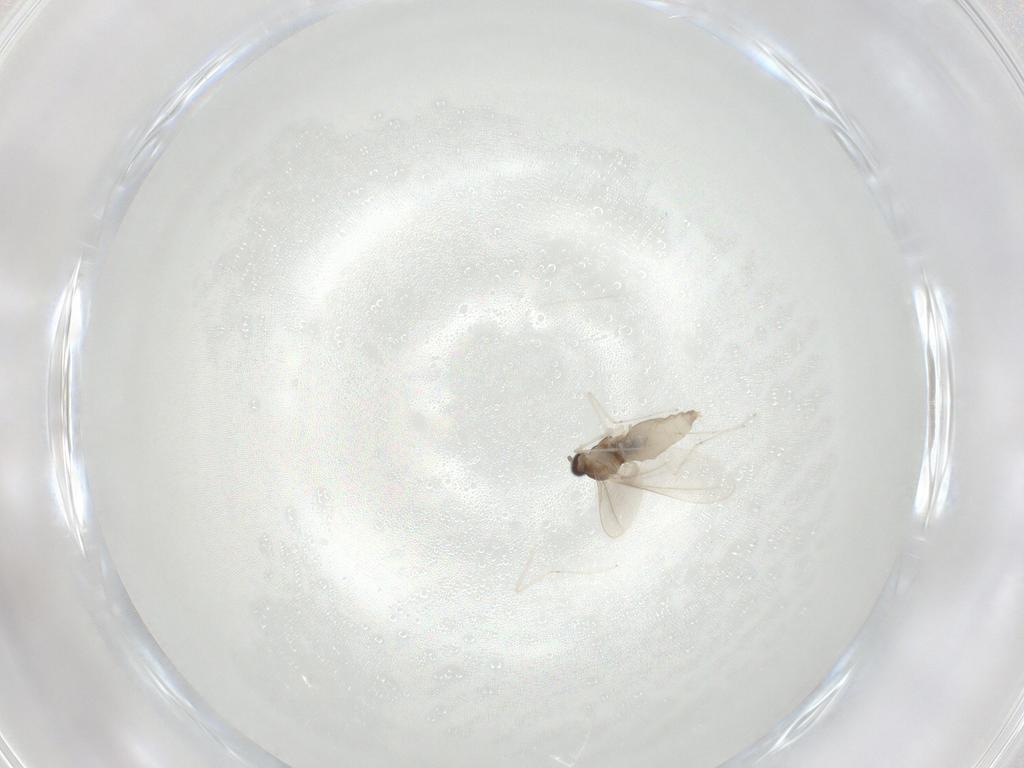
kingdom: Animalia
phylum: Arthropoda
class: Insecta
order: Diptera
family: Cecidomyiidae
